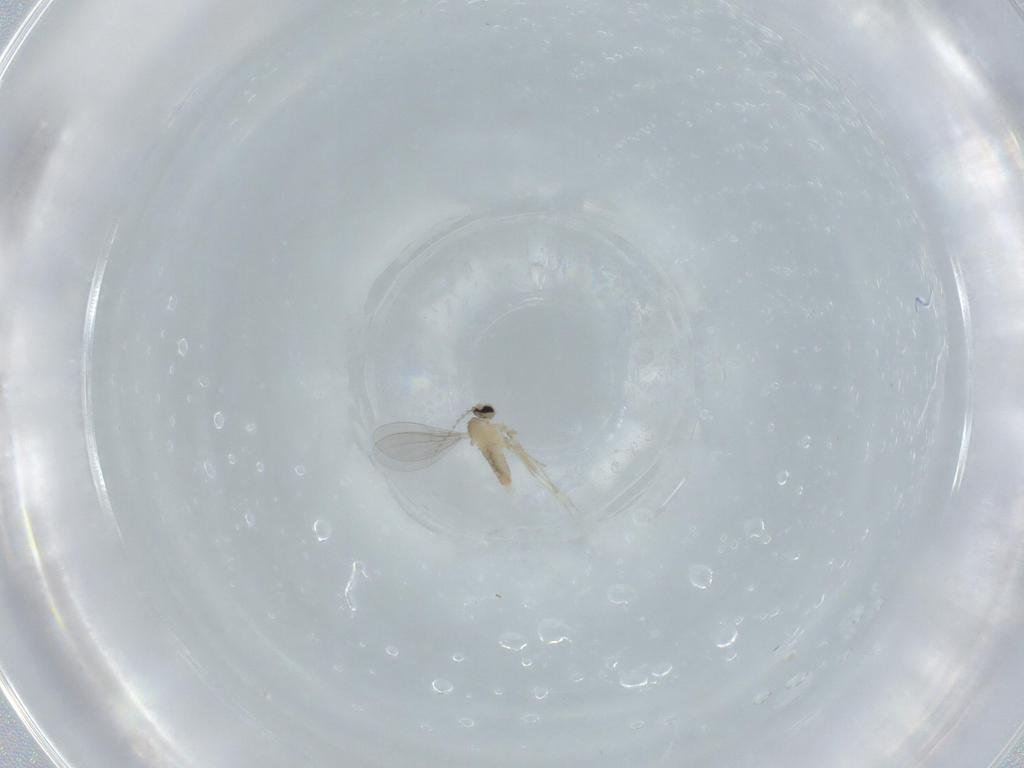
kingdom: Animalia
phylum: Arthropoda
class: Insecta
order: Diptera
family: Cecidomyiidae
